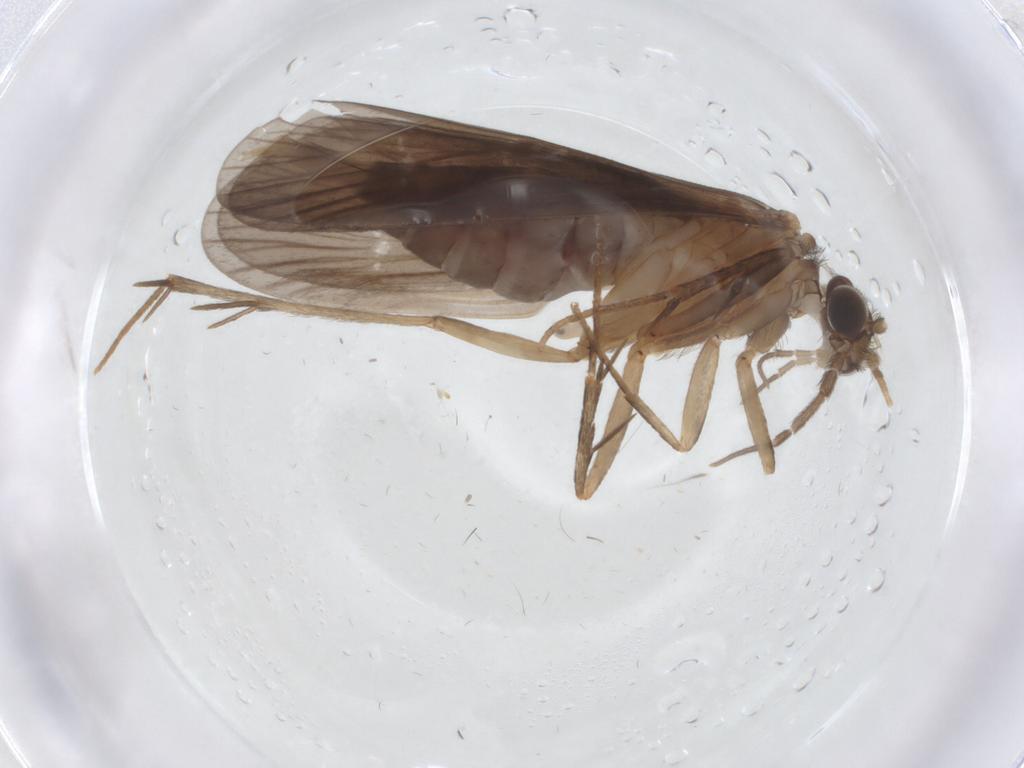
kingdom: Animalia
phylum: Arthropoda
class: Insecta
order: Trichoptera
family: Philopotamidae
